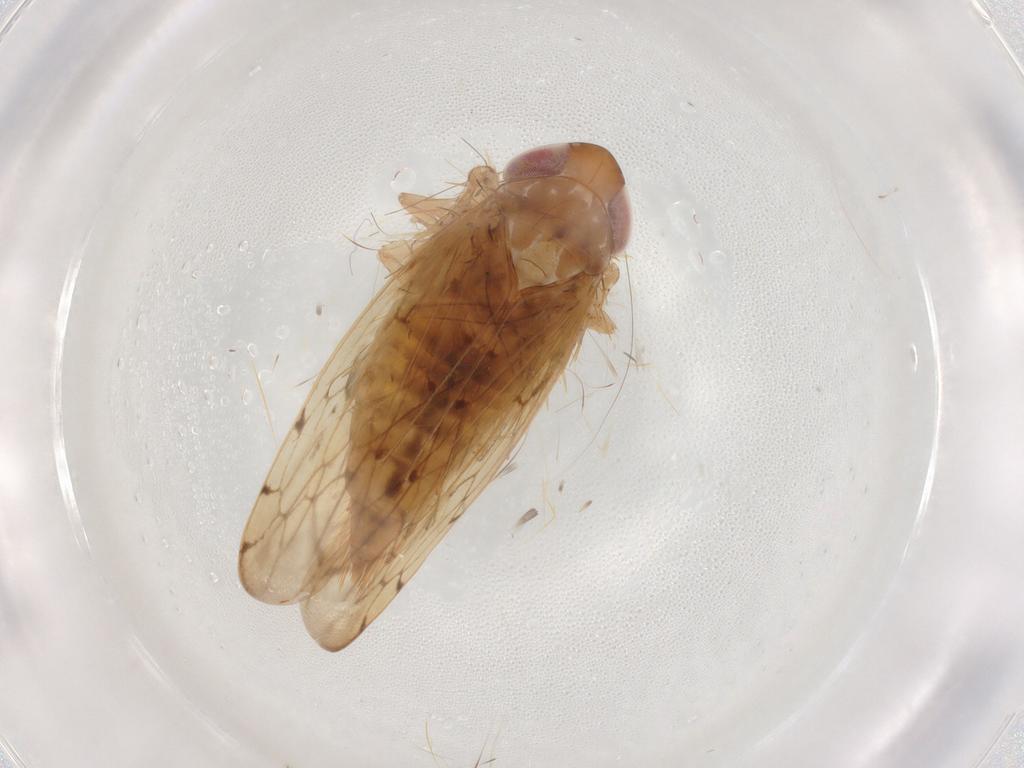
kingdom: Animalia
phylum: Arthropoda
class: Insecta
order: Hemiptera
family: Cicadellidae
